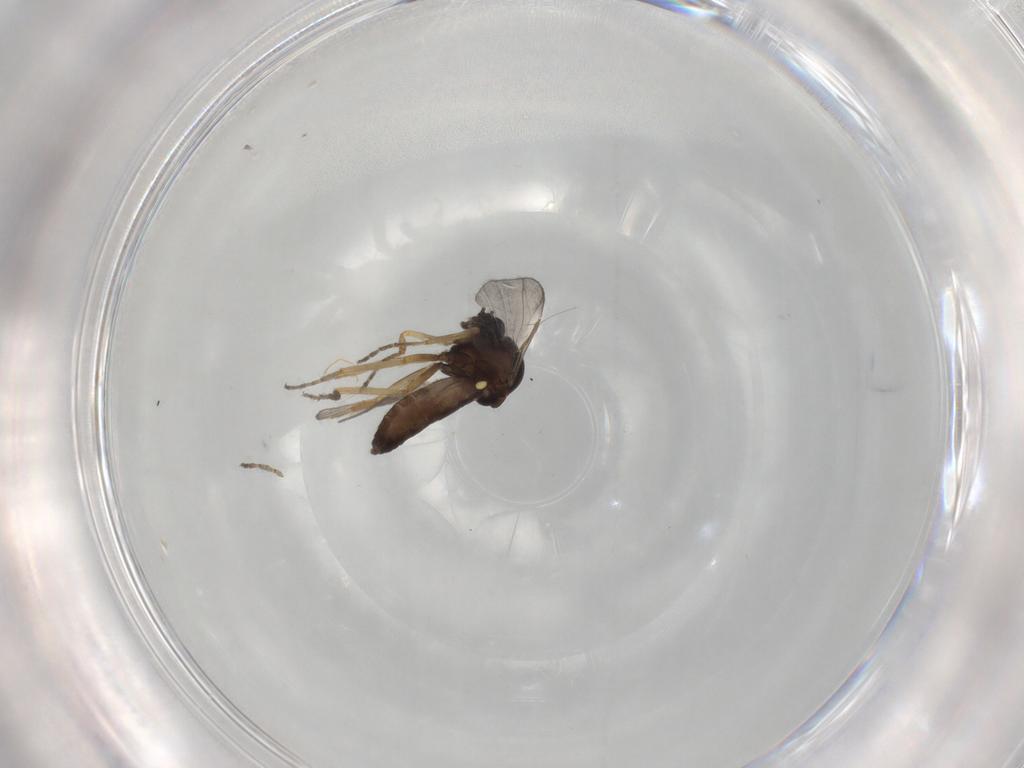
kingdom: Animalia
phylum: Arthropoda
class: Insecta
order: Diptera
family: Ceratopogonidae
